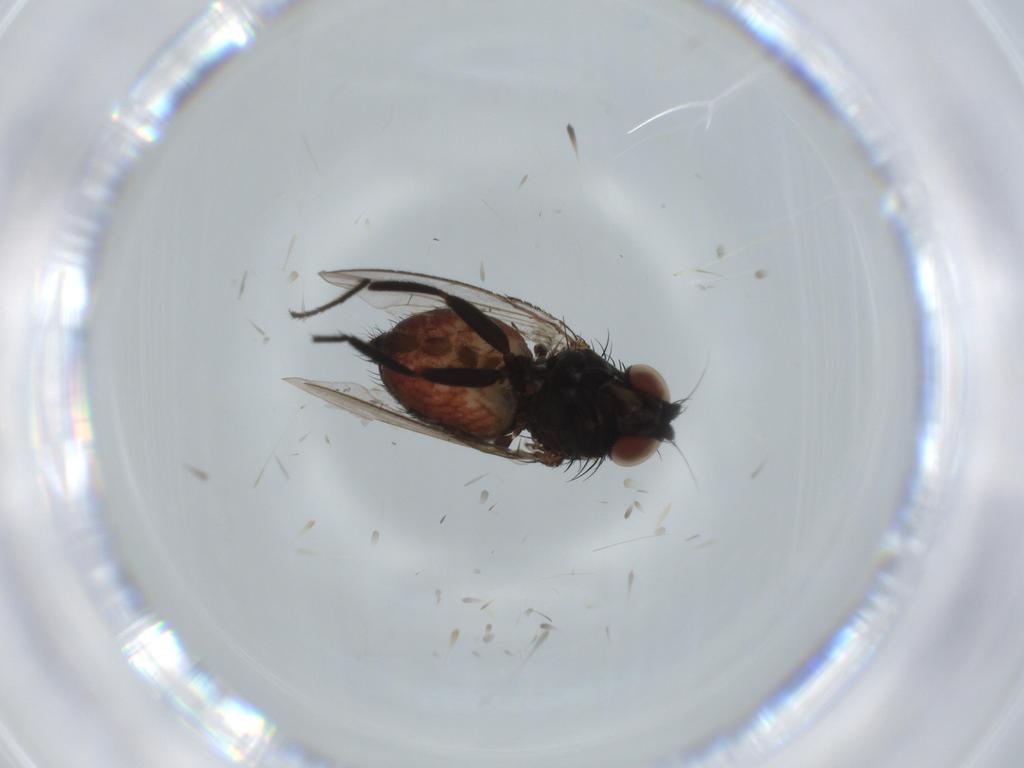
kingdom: Animalia
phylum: Arthropoda
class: Insecta
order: Diptera
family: Milichiidae
